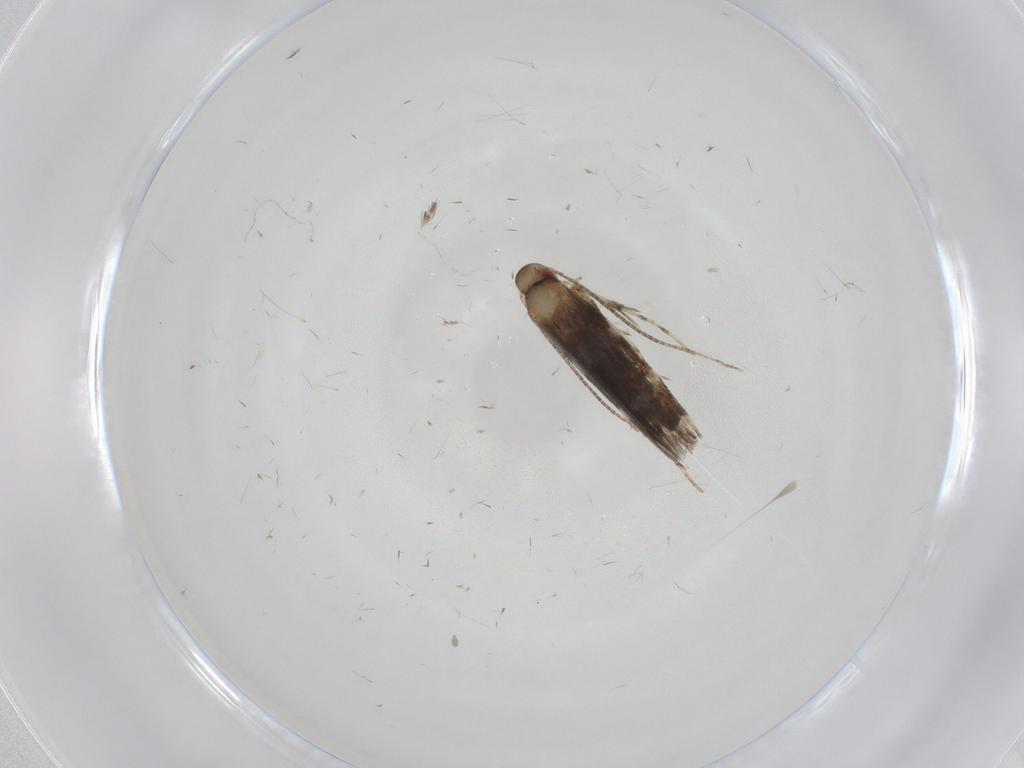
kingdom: Animalia
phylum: Arthropoda
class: Insecta
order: Lepidoptera
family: Gracillariidae
